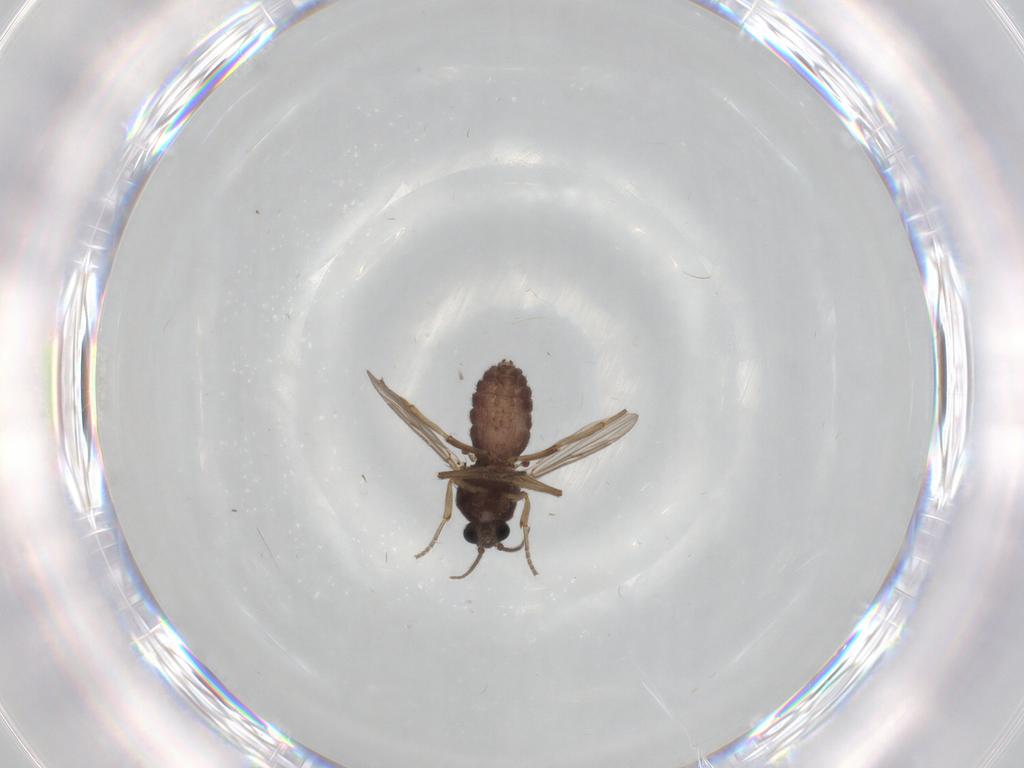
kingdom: Animalia
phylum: Arthropoda
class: Insecta
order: Diptera
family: Ceratopogonidae
